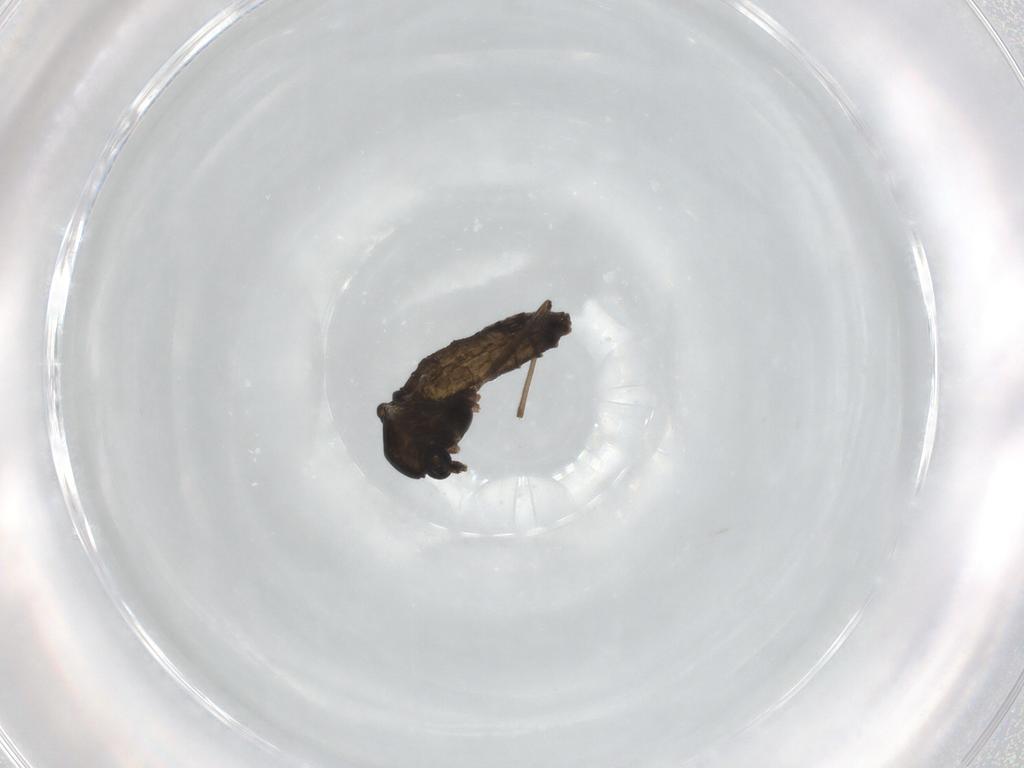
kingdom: Animalia
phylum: Arthropoda
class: Insecta
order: Diptera
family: Chironomidae
